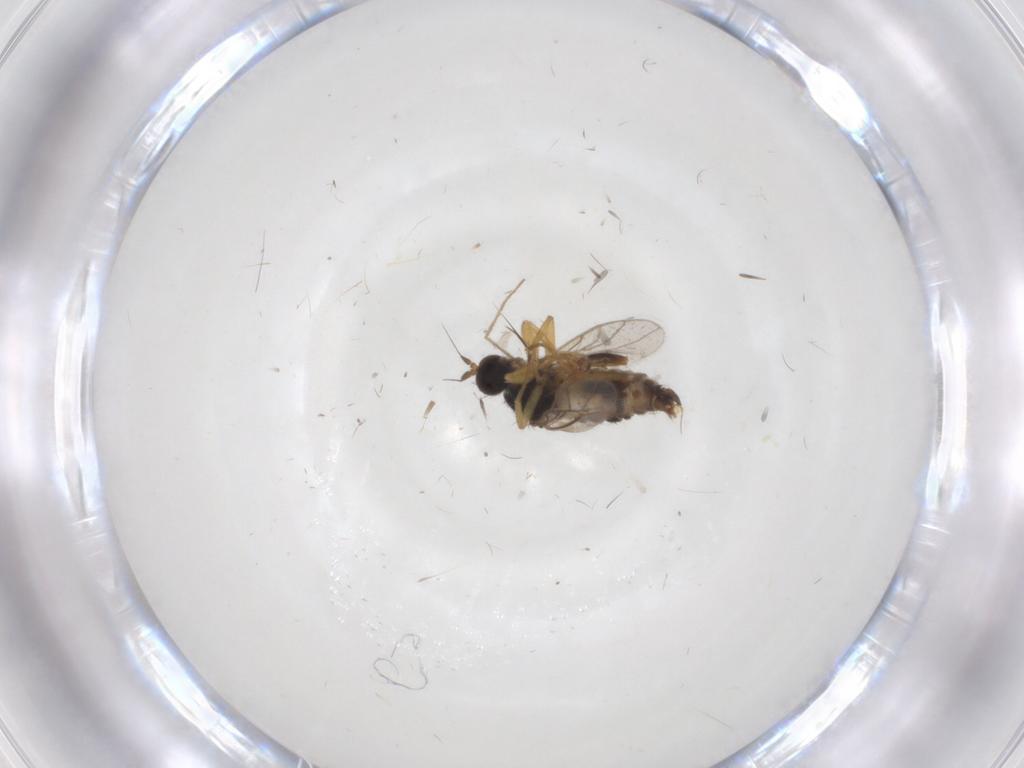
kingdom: Animalia
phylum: Arthropoda
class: Insecta
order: Diptera
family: Hybotidae
